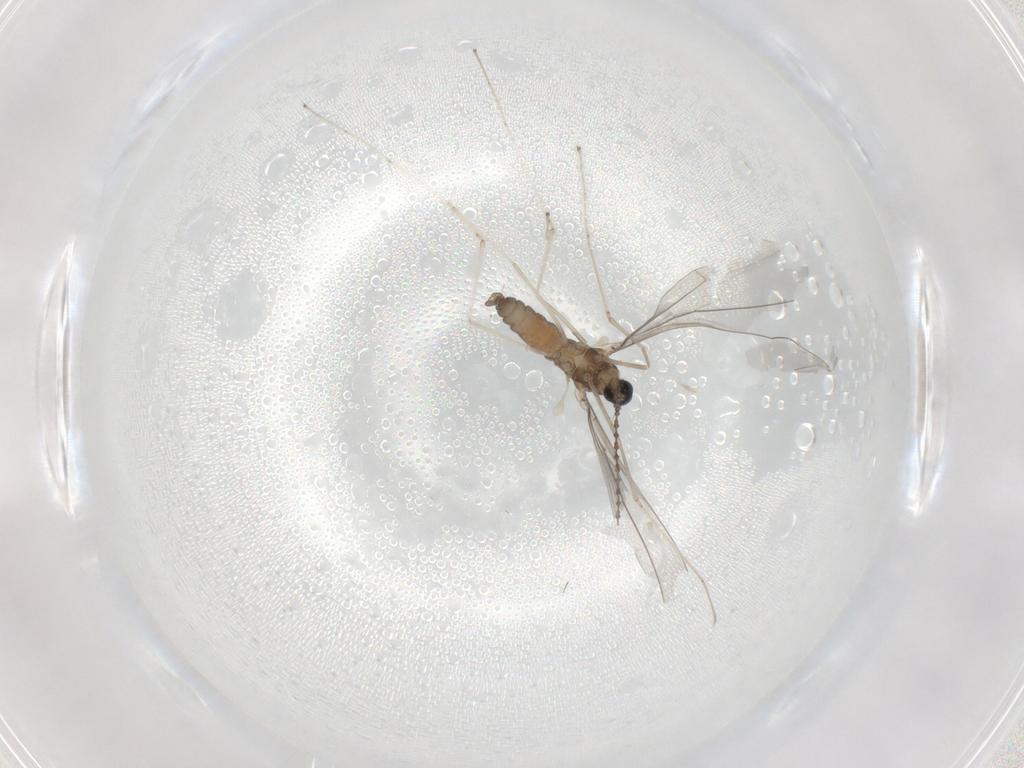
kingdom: Animalia
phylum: Arthropoda
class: Insecta
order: Diptera
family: Cecidomyiidae
